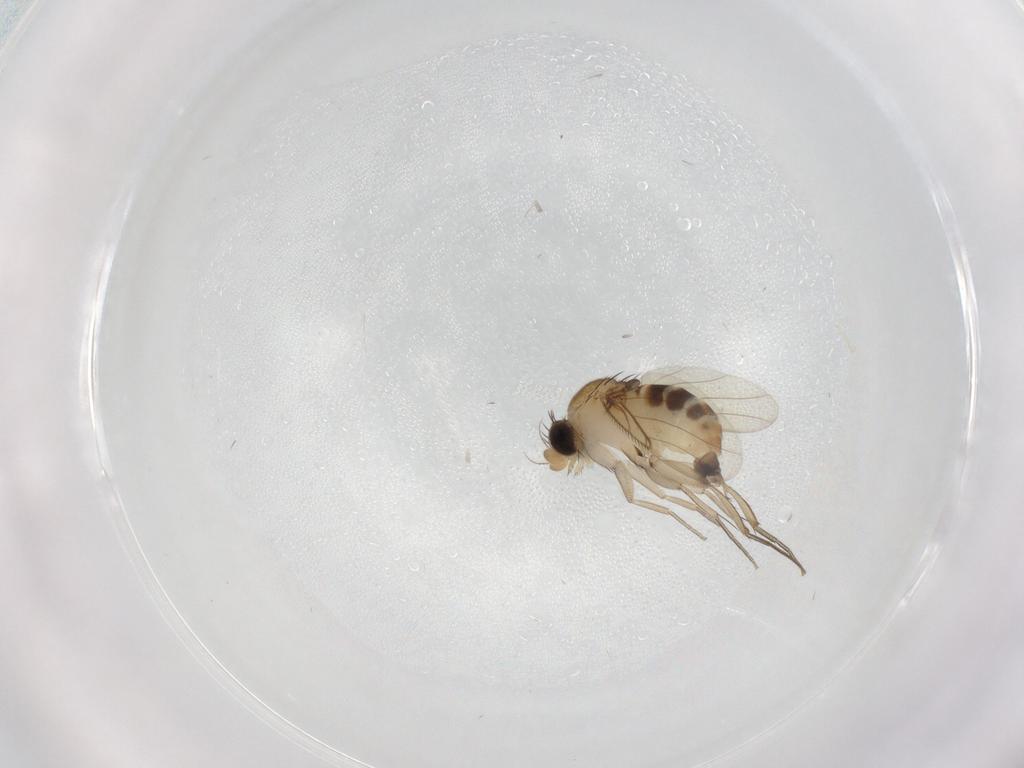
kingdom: Animalia
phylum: Arthropoda
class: Insecta
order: Diptera
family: Phoridae
